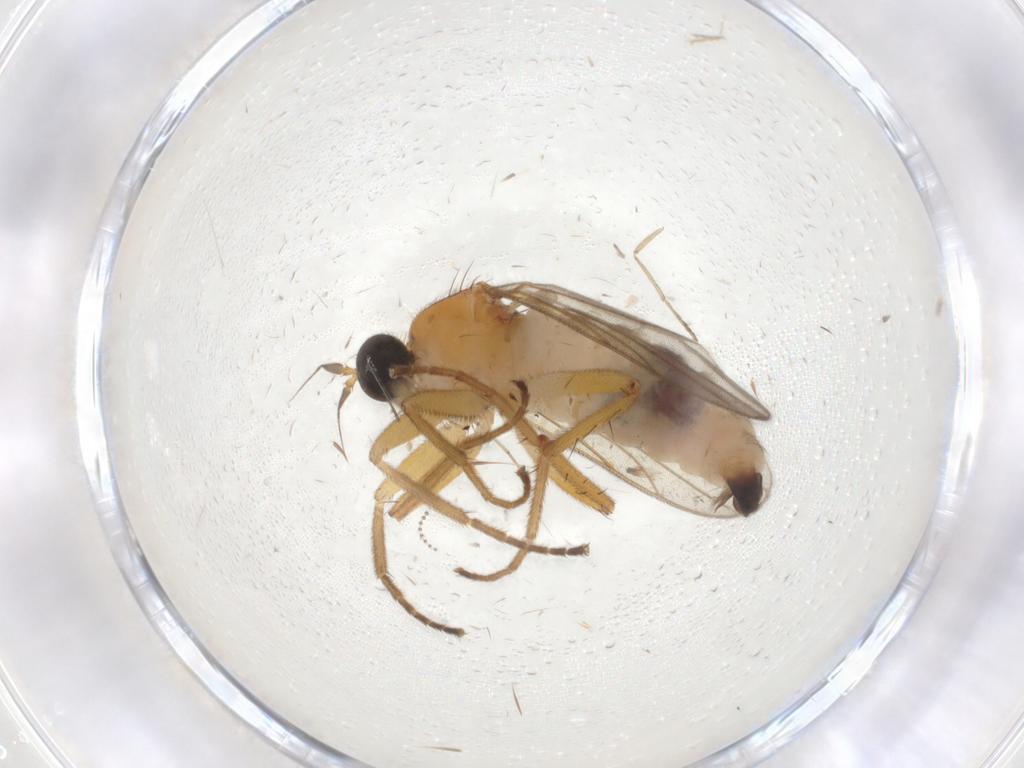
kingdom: Animalia
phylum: Arthropoda
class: Insecta
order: Diptera
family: Hybotidae
